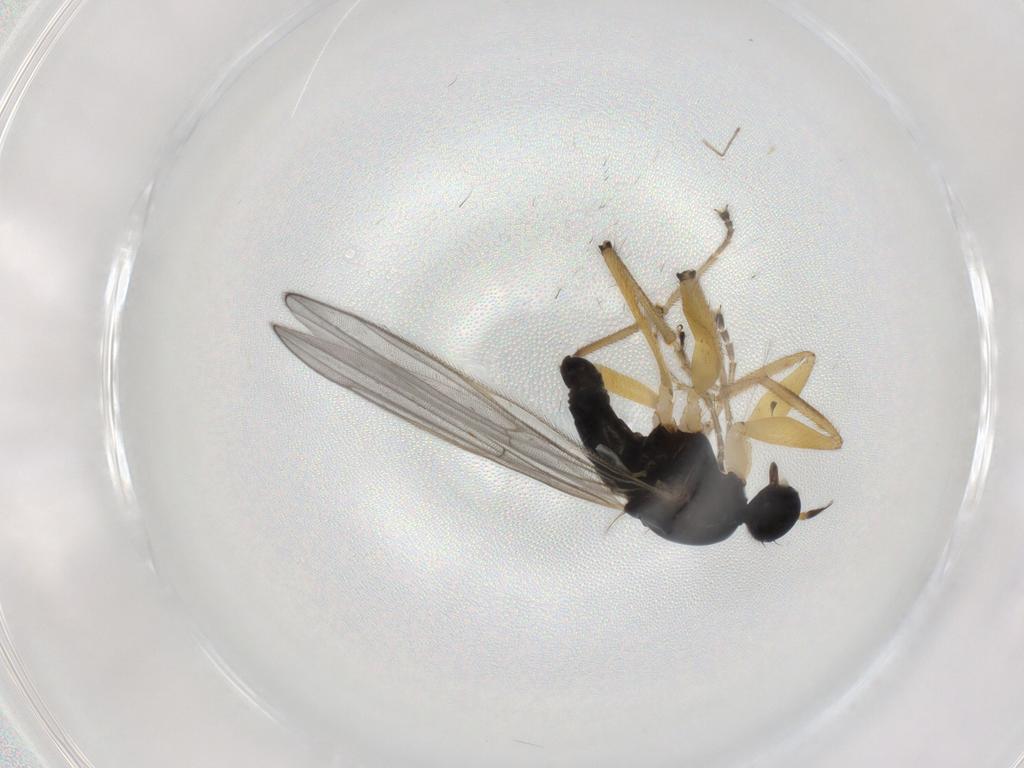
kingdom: Animalia
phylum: Arthropoda
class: Insecta
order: Diptera
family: Hybotidae
